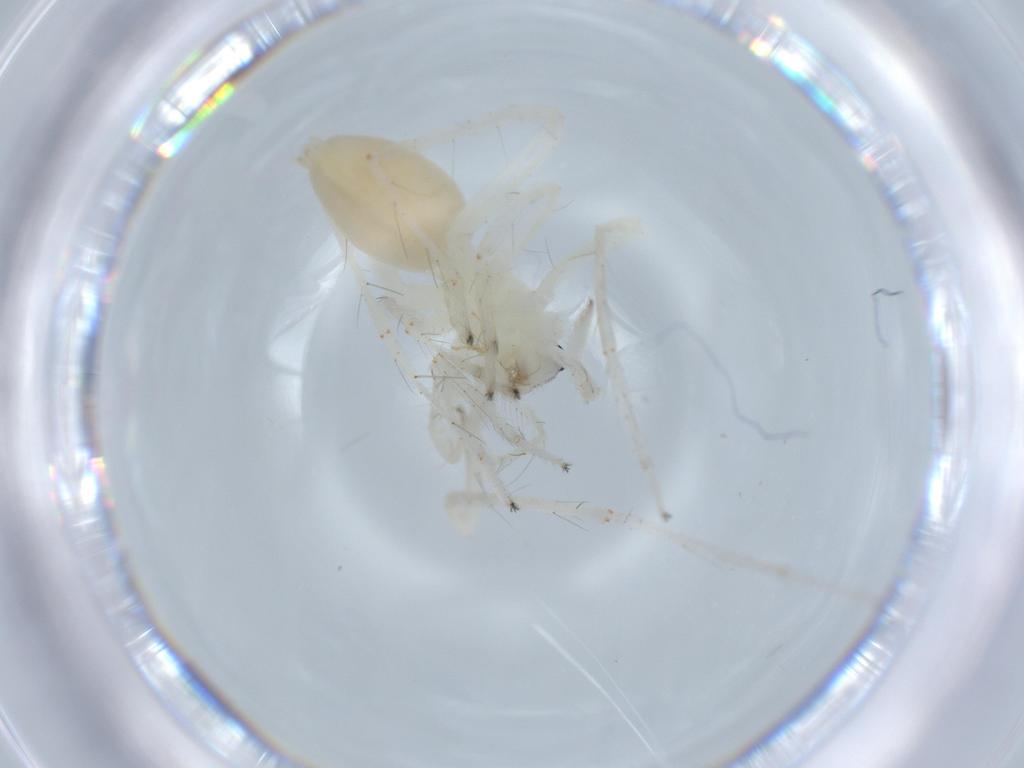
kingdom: Animalia
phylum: Arthropoda
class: Arachnida
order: Araneae
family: Anyphaenidae
